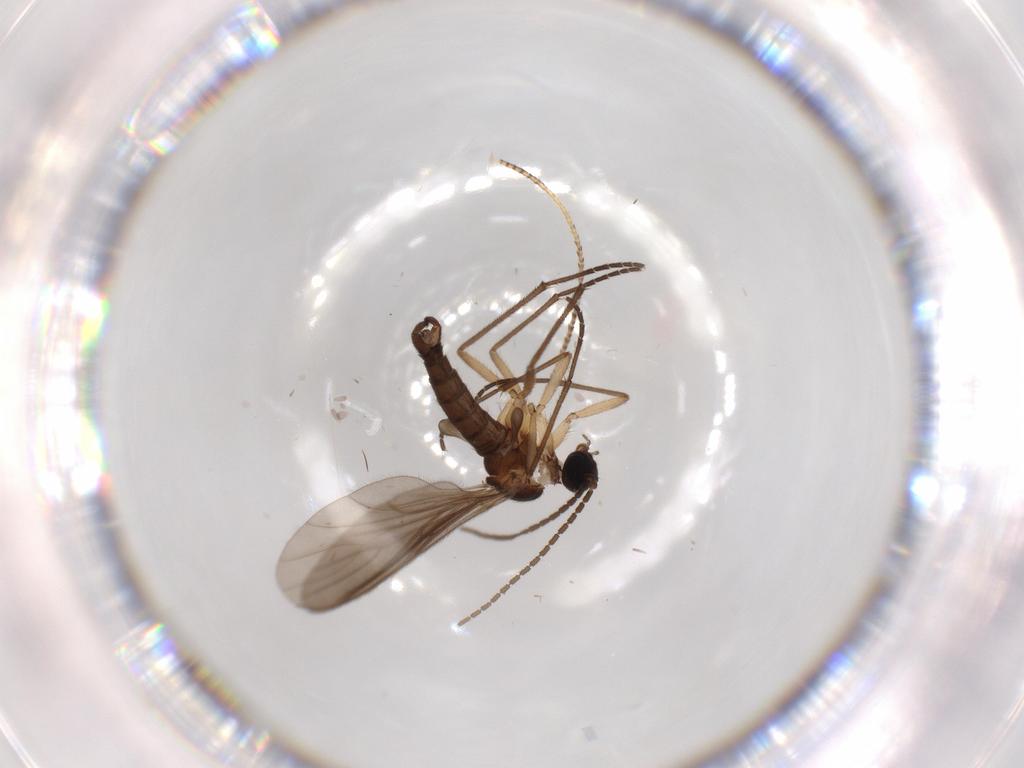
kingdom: Animalia
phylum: Arthropoda
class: Insecta
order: Diptera
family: Sciaridae
